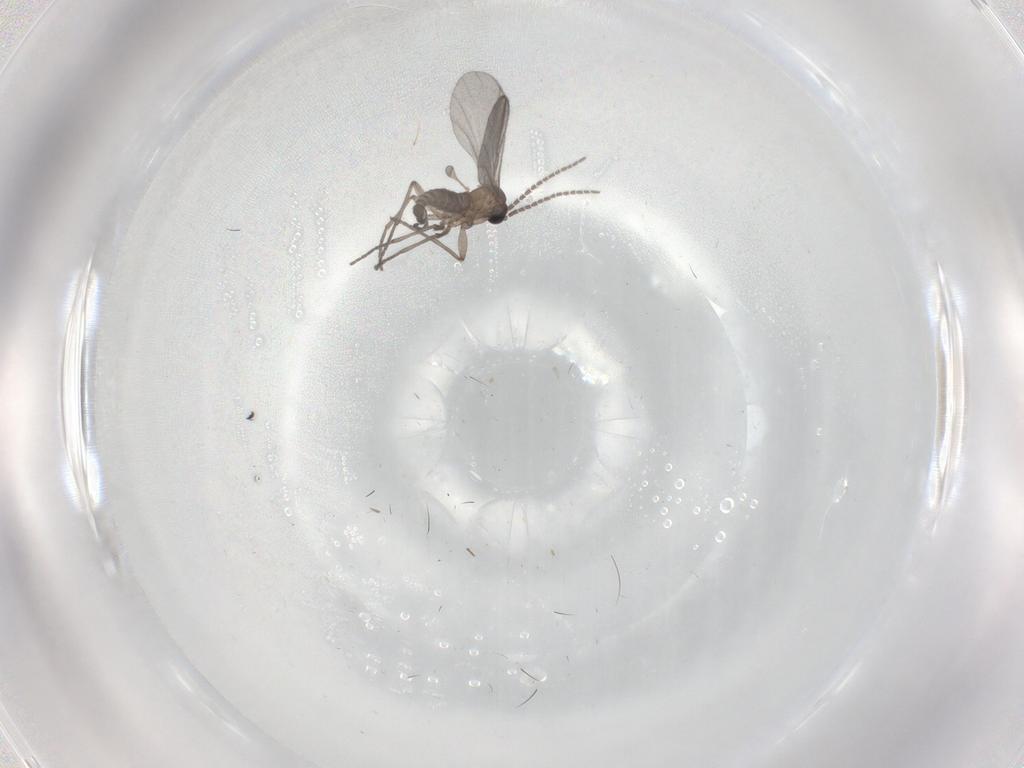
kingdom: Animalia
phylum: Arthropoda
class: Insecta
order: Diptera
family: Sciaridae
